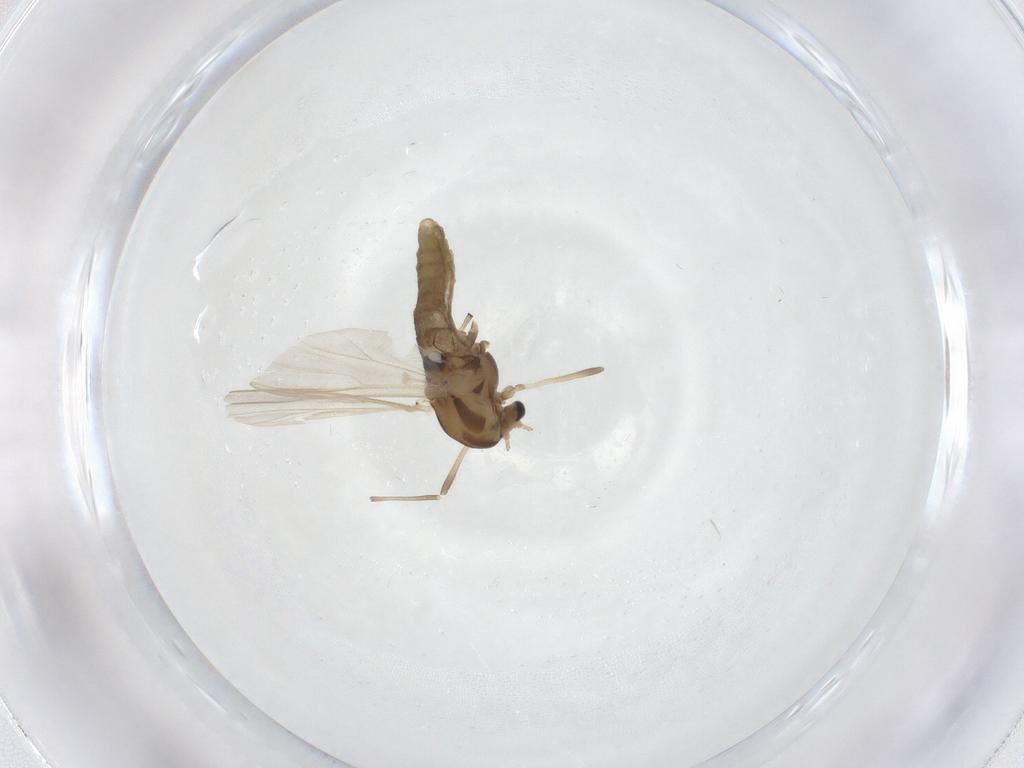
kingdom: Animalia
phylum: Arthropoda
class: Insecta
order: Diptera
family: Chironomidae
